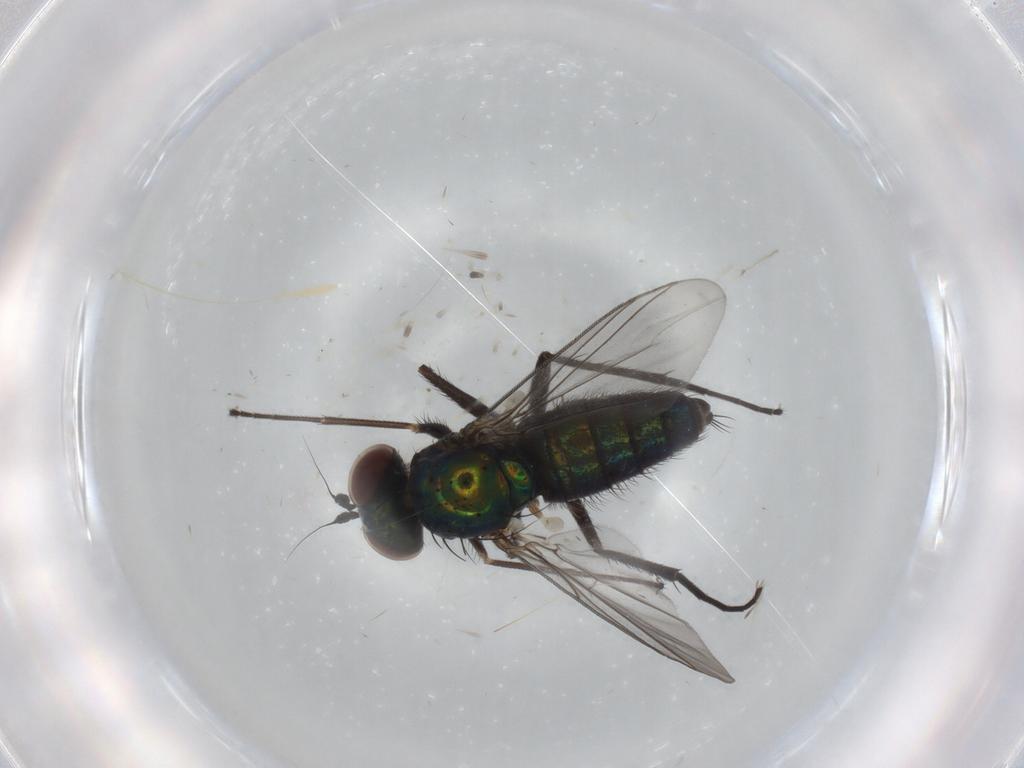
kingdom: Animalia
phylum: Arthropoda
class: Insecta
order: Diptera
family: Dolichopodidae
